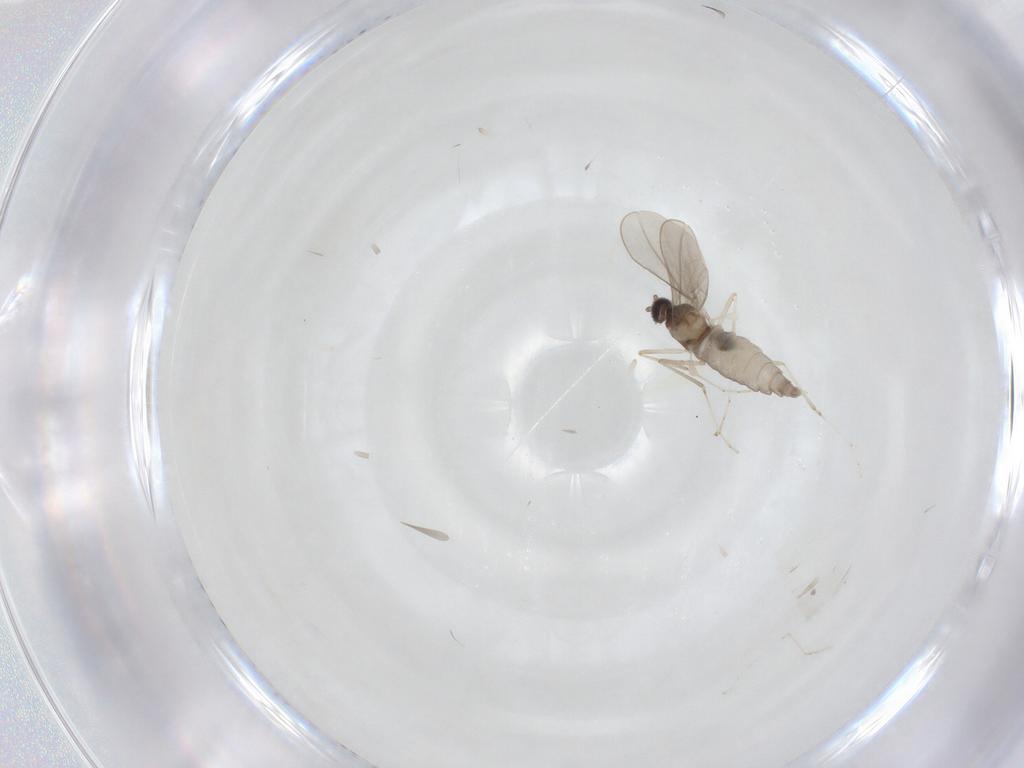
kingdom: Animalia
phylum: Arthropoda
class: Insecta
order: Diptera
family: Cecidomyiidae
